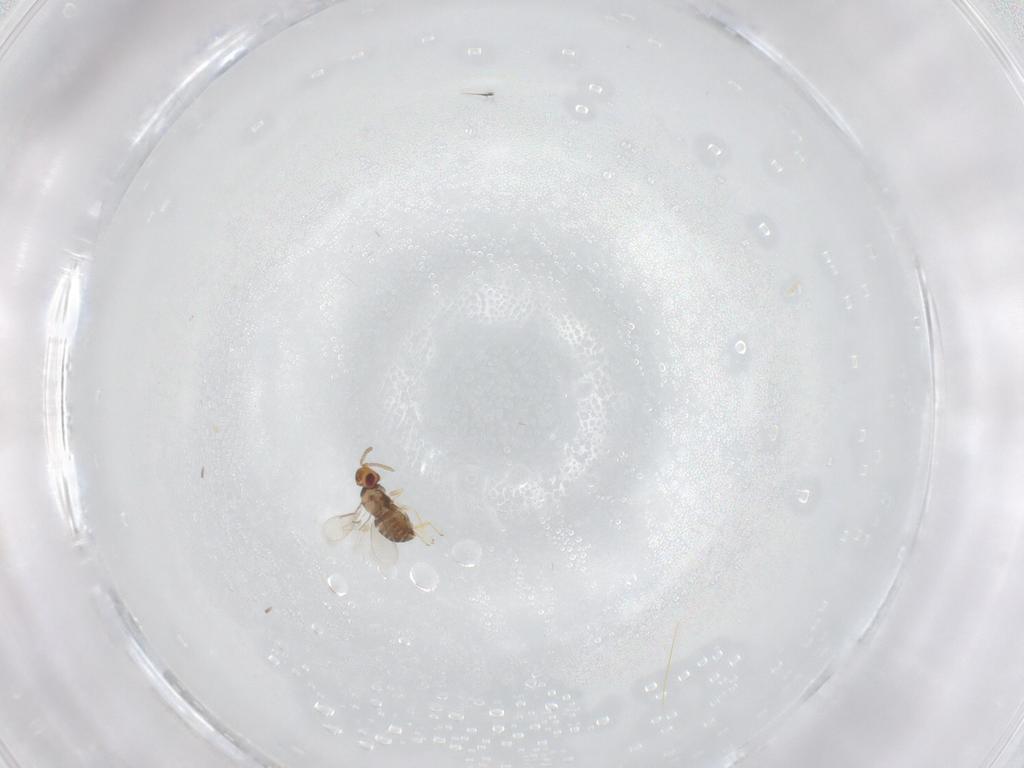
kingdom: Animalia
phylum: Arthropoda
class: Insecta
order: Hymenoptera
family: Aphelinidae
